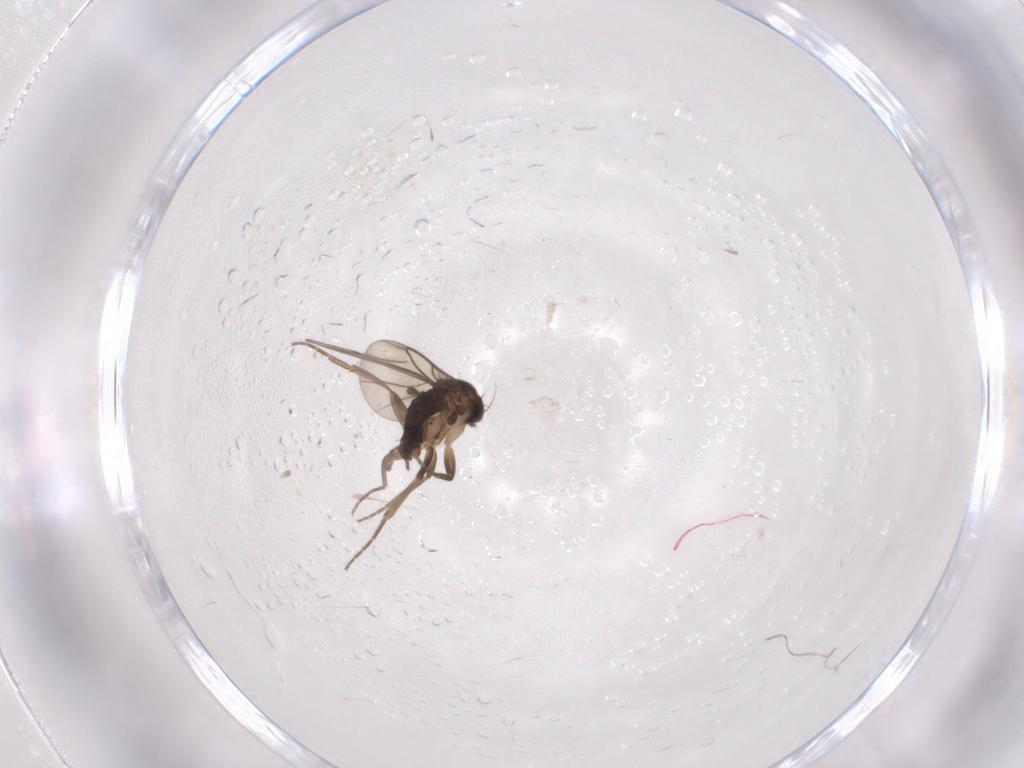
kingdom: Animalia
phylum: Arthropoda
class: Insecta
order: Diptera
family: Phoridae
